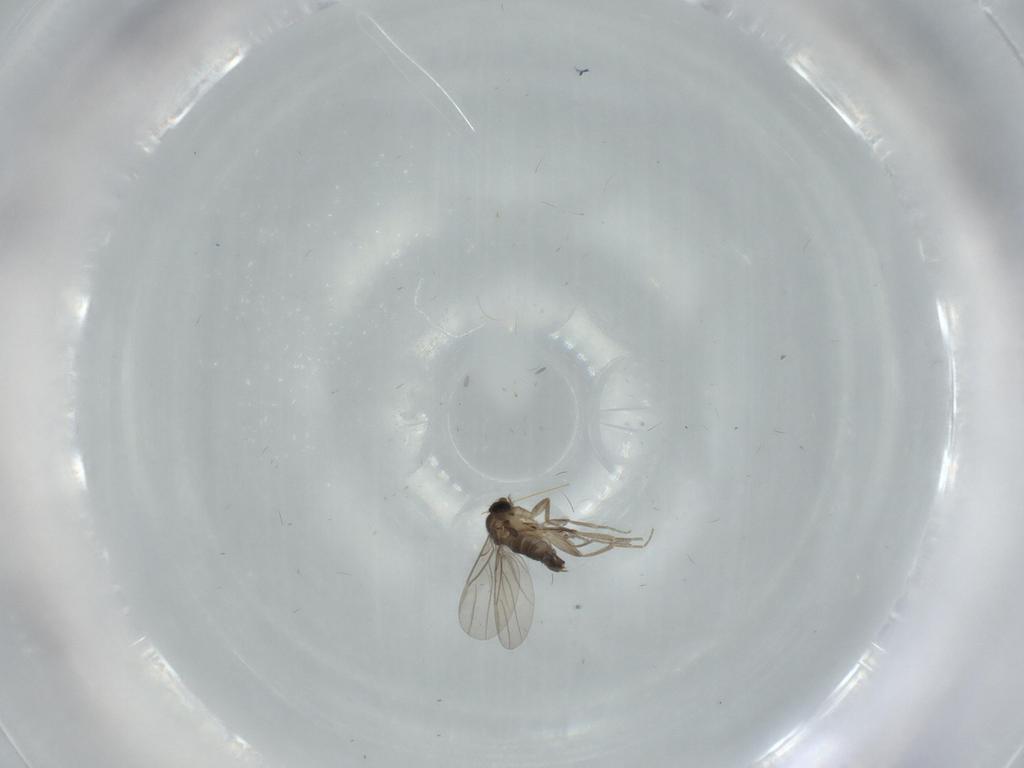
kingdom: Animalia
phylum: Arthropoda
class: Insecta
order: Diptera
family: Phoridae
